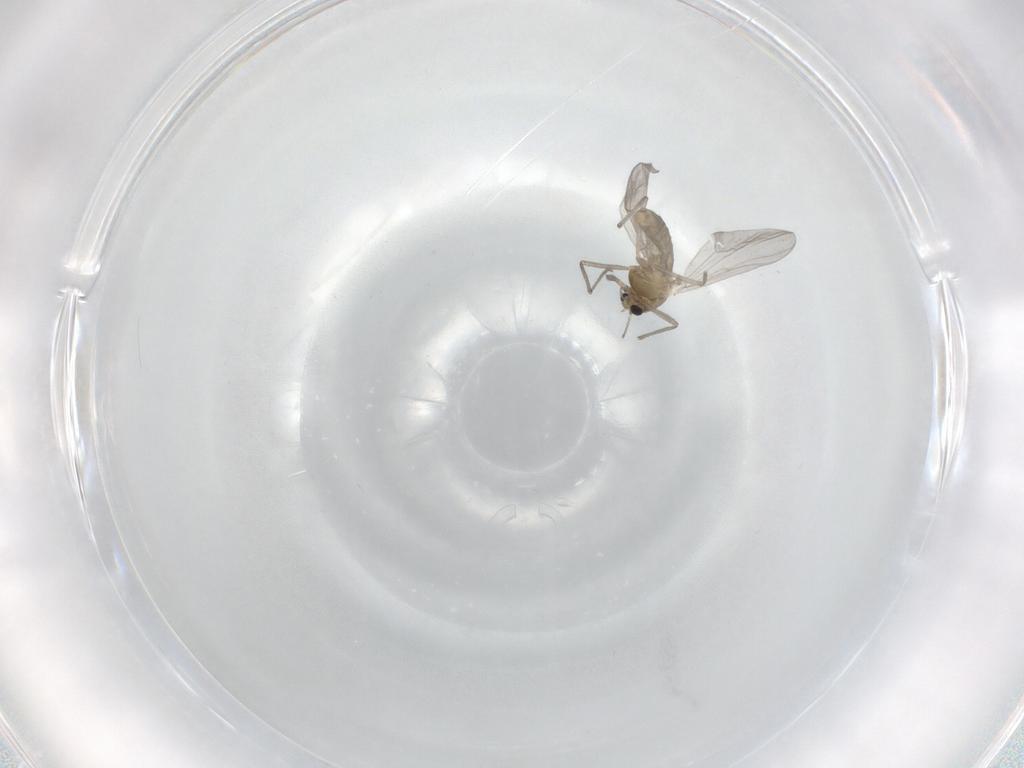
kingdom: Animalia
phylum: Arthropoda
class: Insecta
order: Diptera
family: Chironomidae
